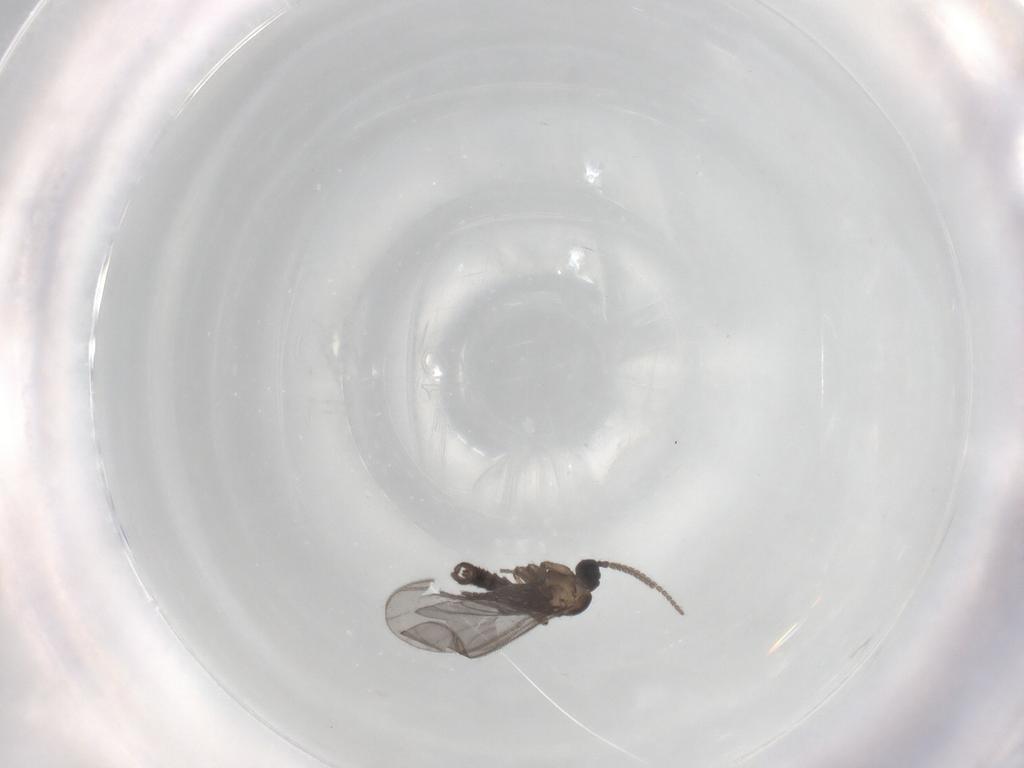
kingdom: Animalia
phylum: Arthropoda
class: Insecta
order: Diptera
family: Sciaridae
